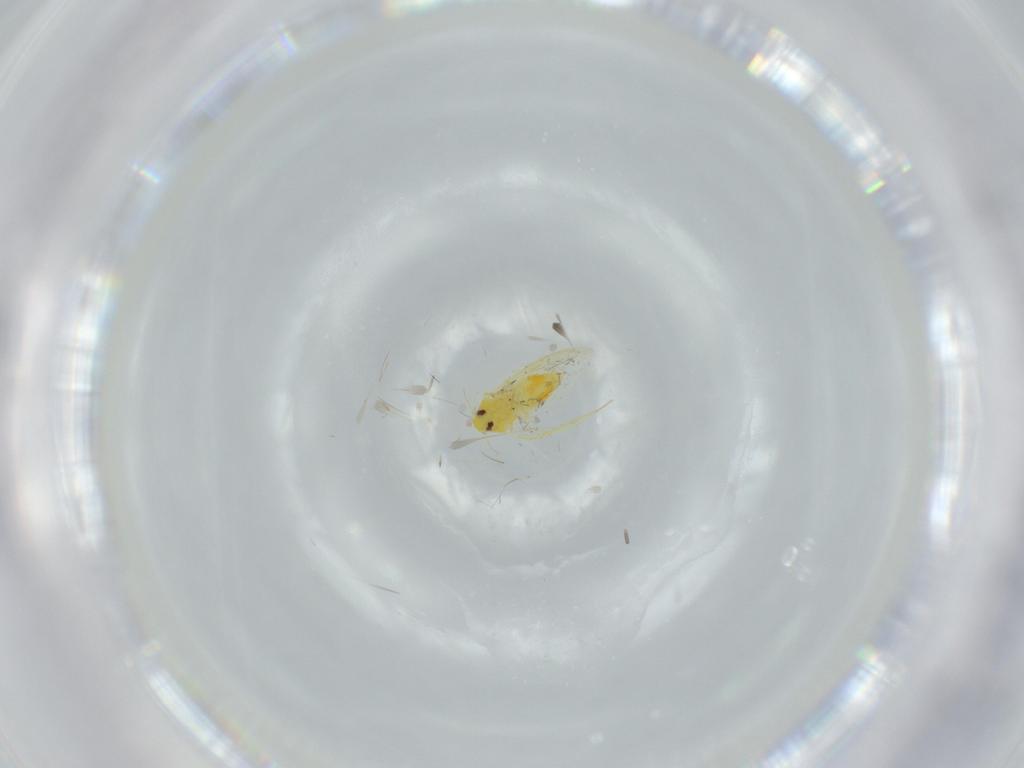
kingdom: Animalia
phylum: Arthropoda
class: Insecta
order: Hemiptera
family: Aleyrodidae
